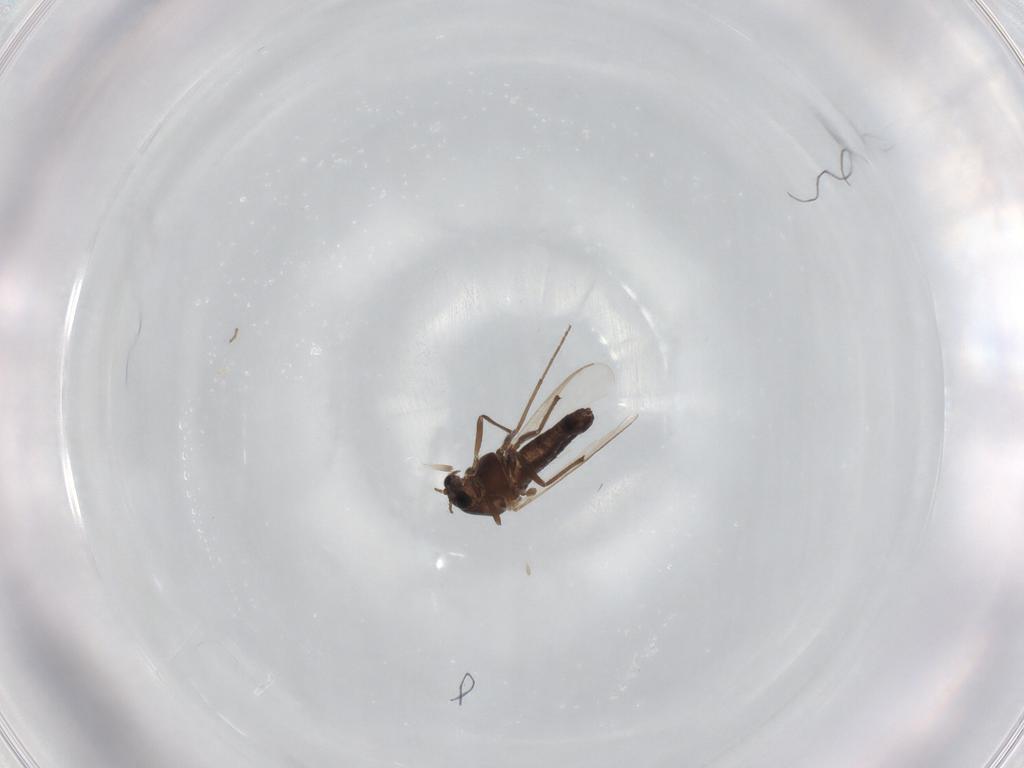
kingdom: Animalia
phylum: Arthropoda
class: Insecta
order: Diptera
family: Chironomidae
